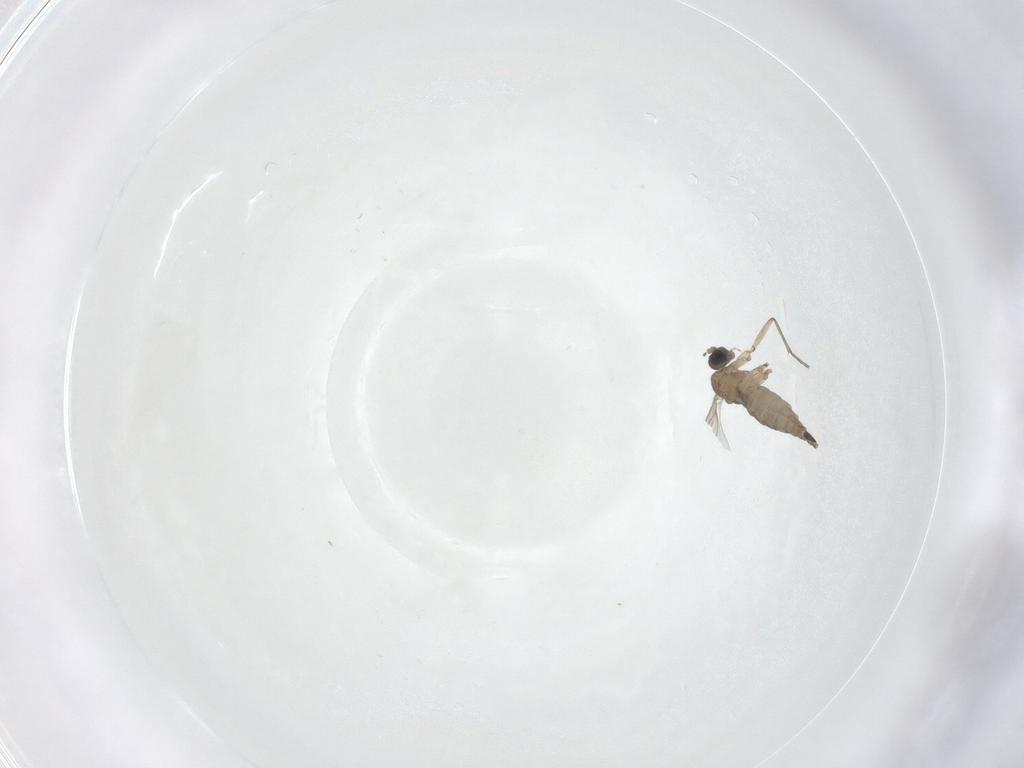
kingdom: Animalia
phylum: Arthropoda
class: Insecta
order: Diptera
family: Sciaridae
